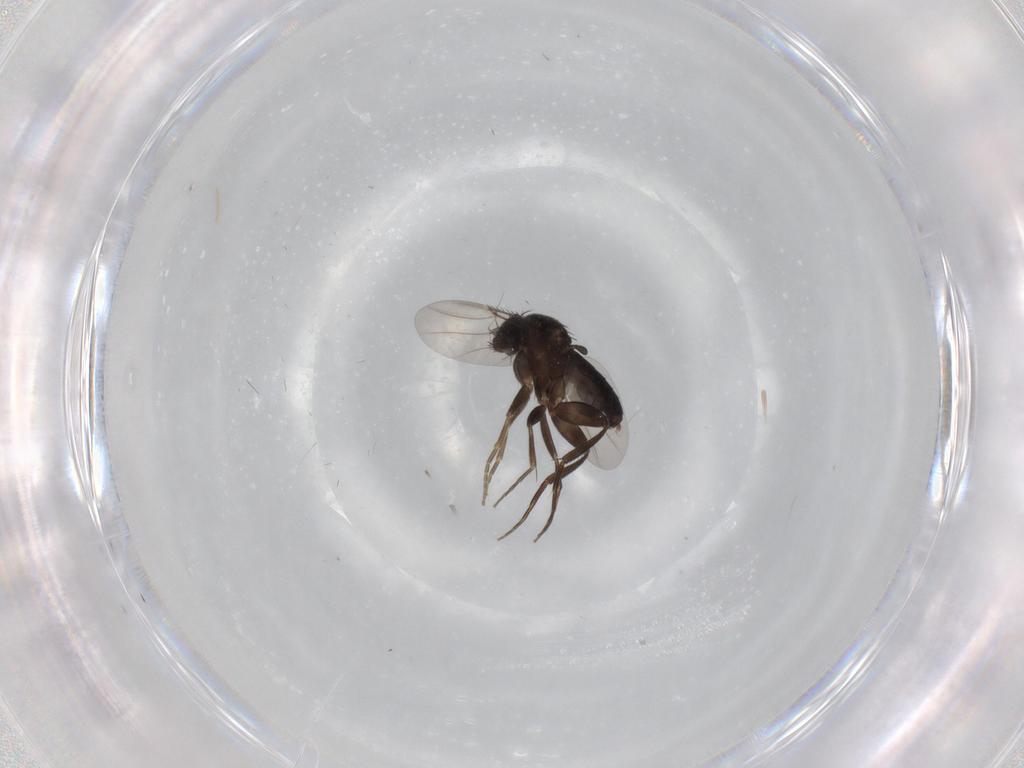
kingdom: Animalia
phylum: Arthropoda
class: Insecta
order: Diptera
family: Phoridae
